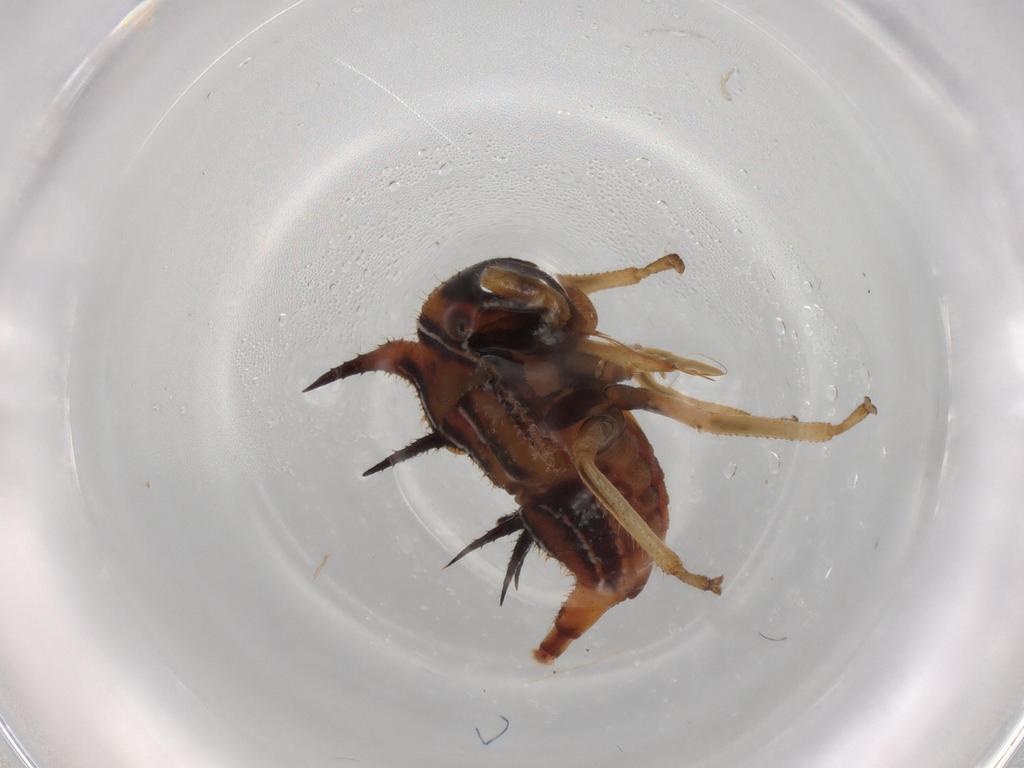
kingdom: Animalia
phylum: Arthropoda
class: Insecta
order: Hemiptera
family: Membracidae
